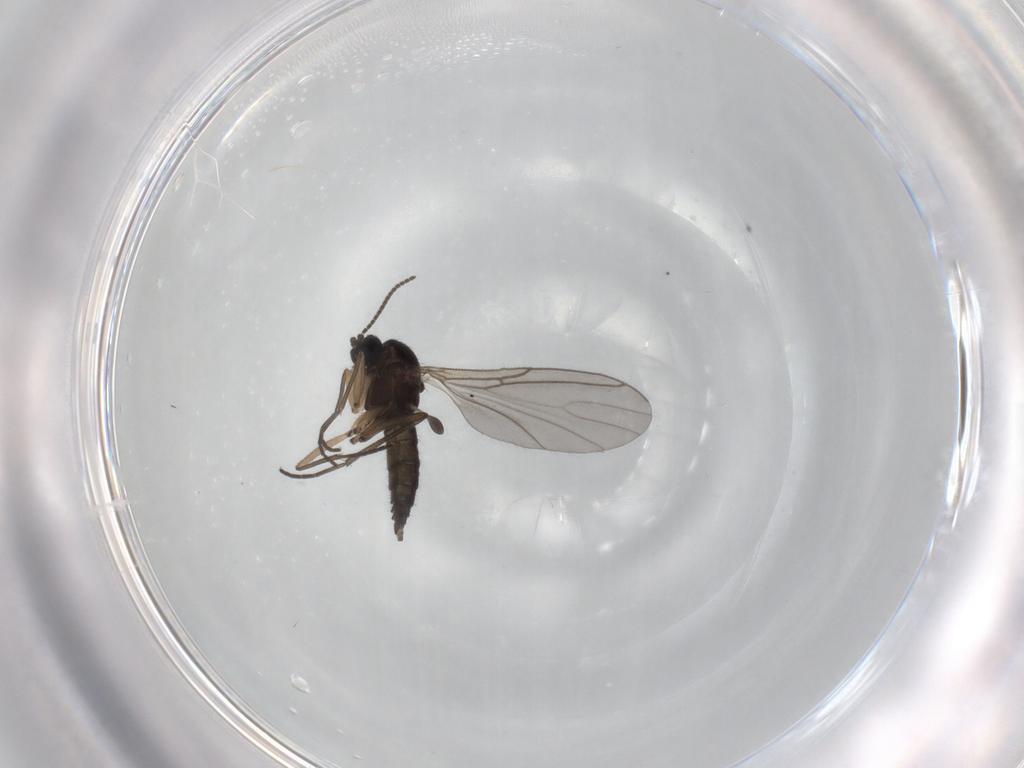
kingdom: Animalia
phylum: Arthropoda
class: Insecta
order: Diptera
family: Sciaridae
